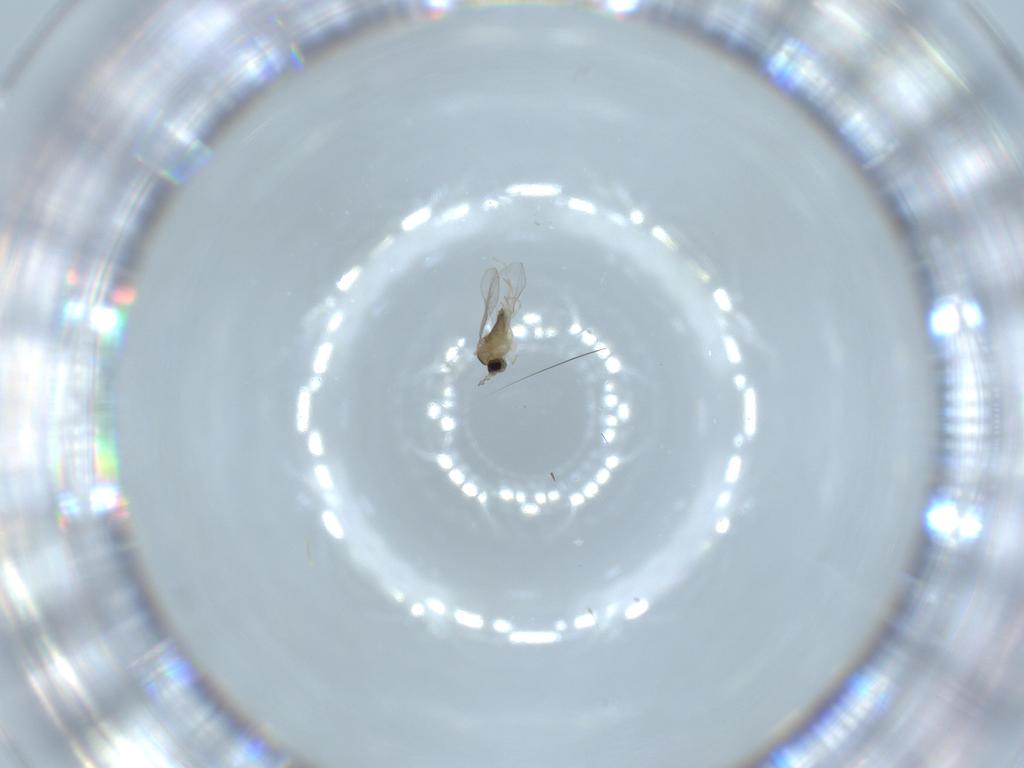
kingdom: Animalia
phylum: Arthropoda
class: Insecta
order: Diptera
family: Cecidomyiidae
